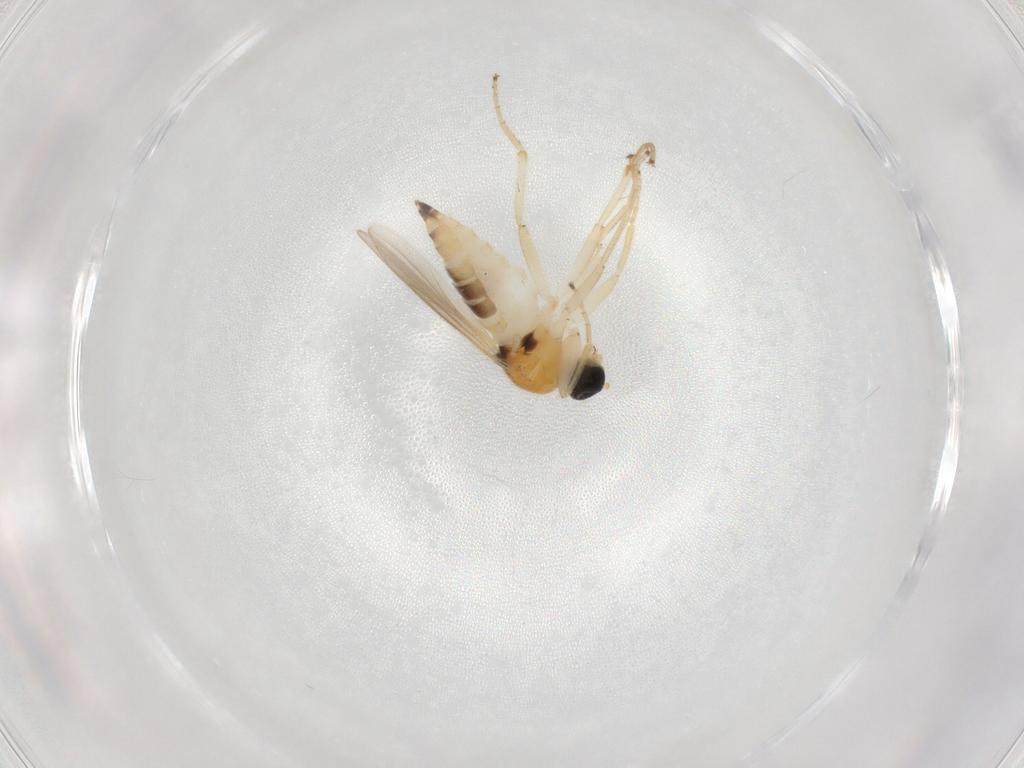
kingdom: Animalia
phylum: Arthropoda
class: Insecta
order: Diptera
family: Hybotidae
